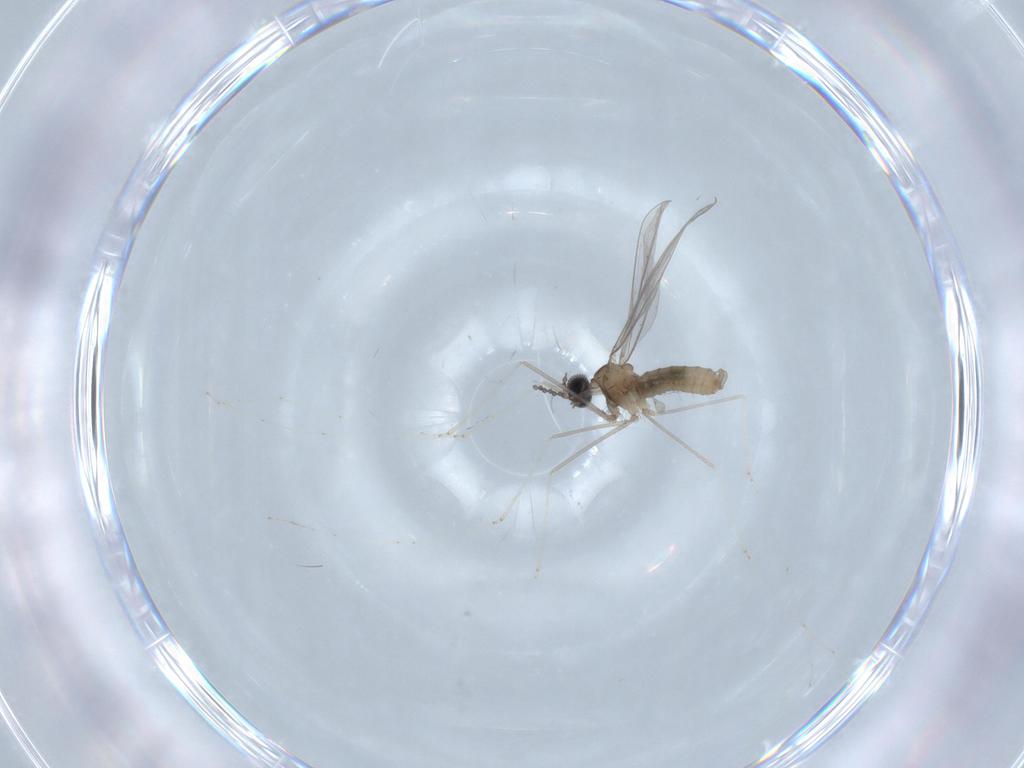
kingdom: Animalia
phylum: Arthropoda
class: Insecta
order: Diptera
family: Cecidomyiidae
